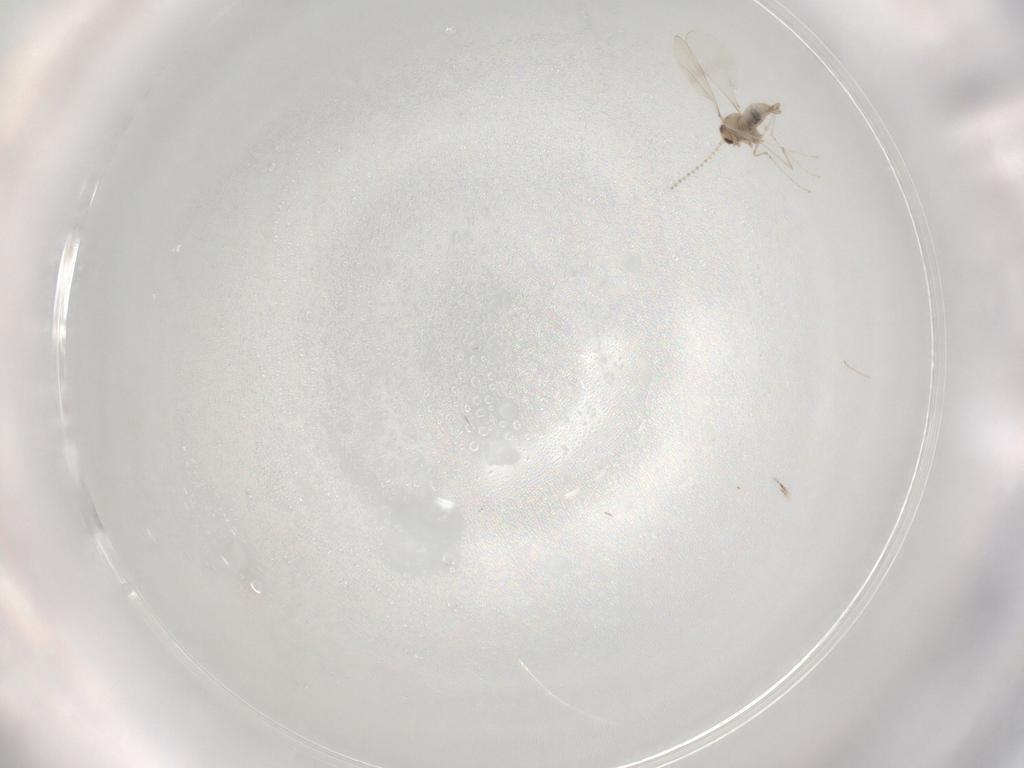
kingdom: Animalia
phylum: Arthropoda
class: Insecta
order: Diptera
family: Cecidomyiidae
